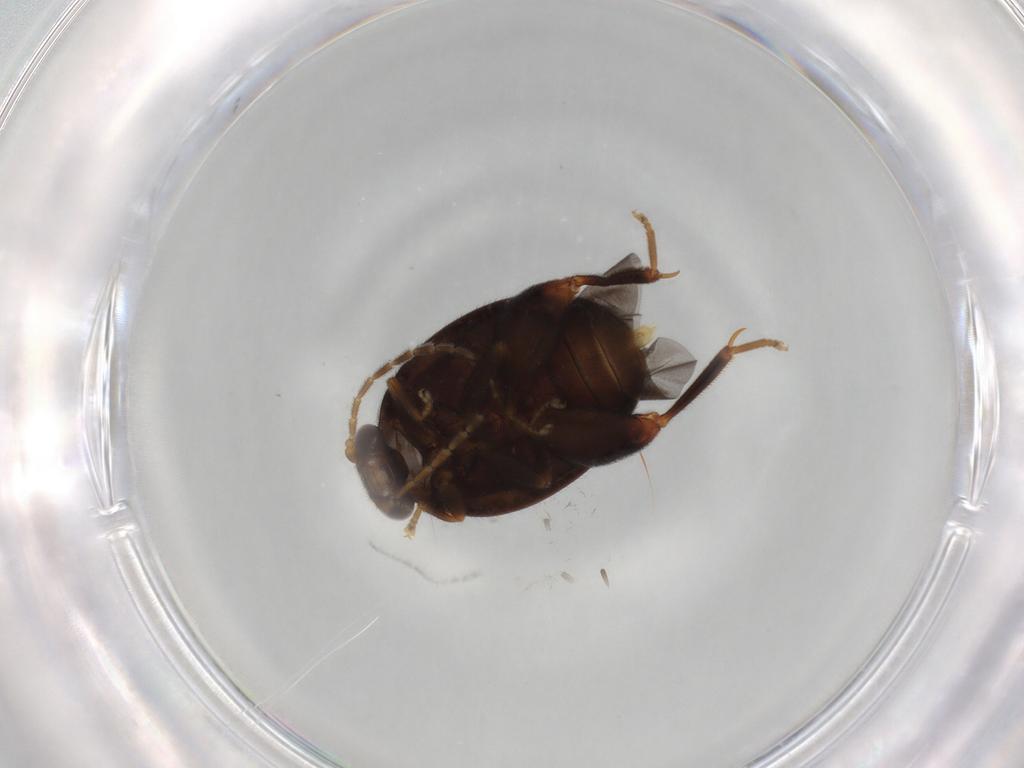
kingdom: Animalia
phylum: Arthropoda
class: Insecta
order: Coleoptera
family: Scirtidae
